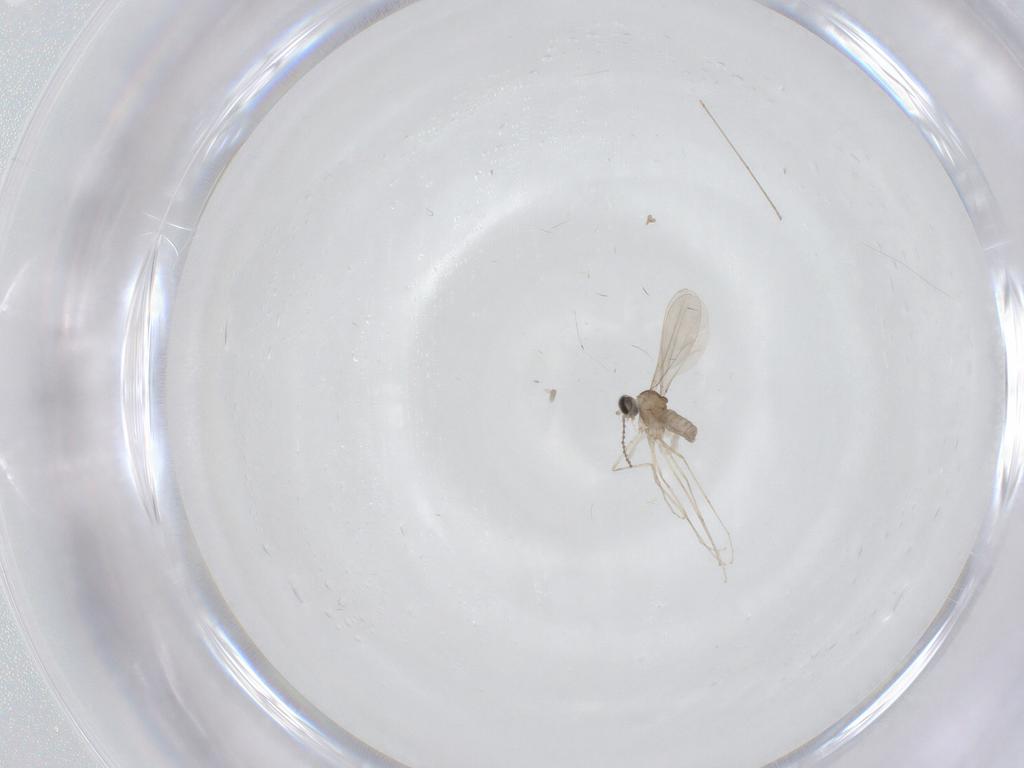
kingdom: Animalia
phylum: Arthropoda
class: Insecta
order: Diptera
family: Cecidomyiidae
